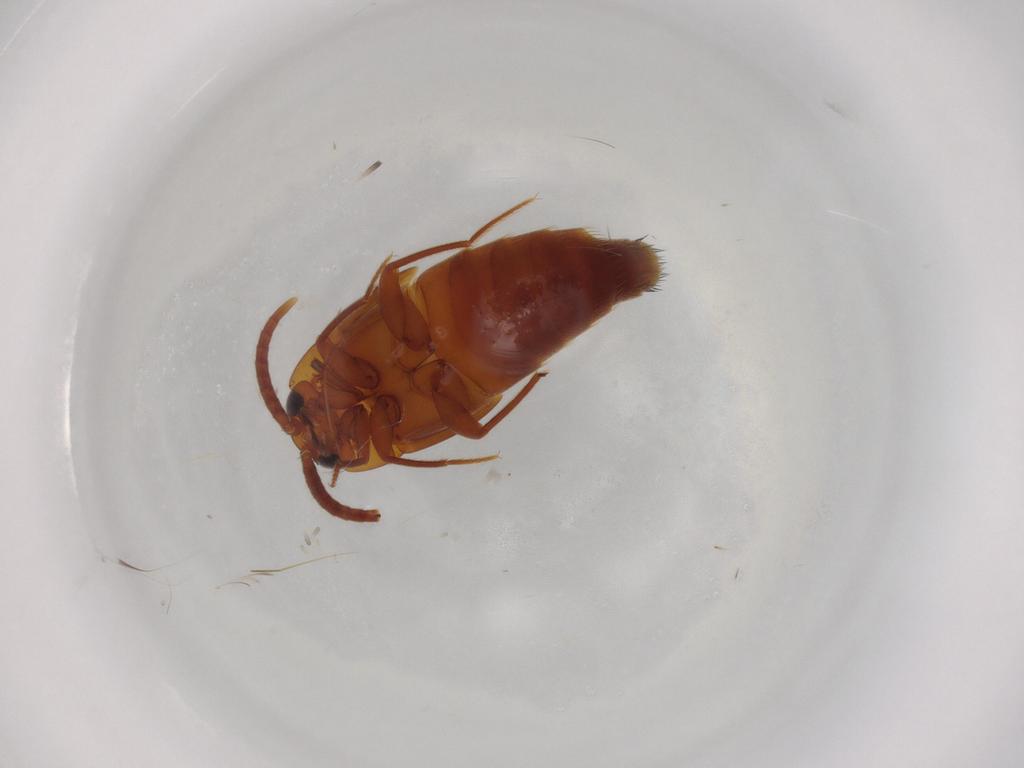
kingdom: Animalia
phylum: Arthropoda
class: Insecta
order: Coleoptera
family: Staphylinidae
